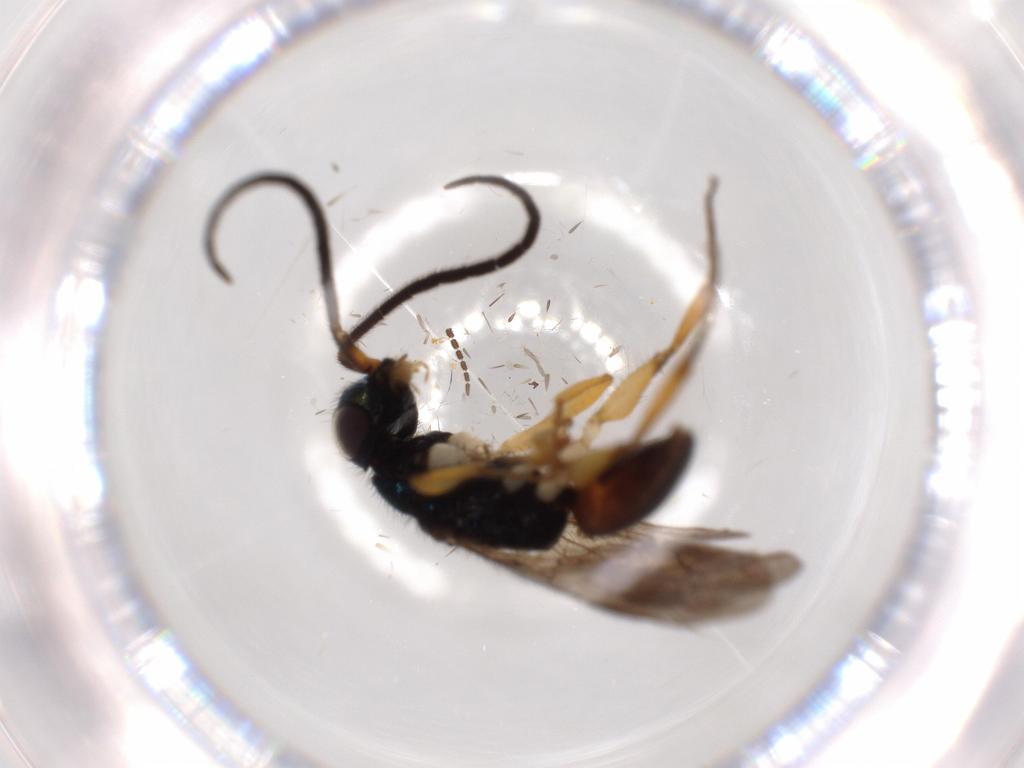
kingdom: Animalia
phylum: Arthropoda
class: Insecta
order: Hymenoptera
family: Chrysididae
